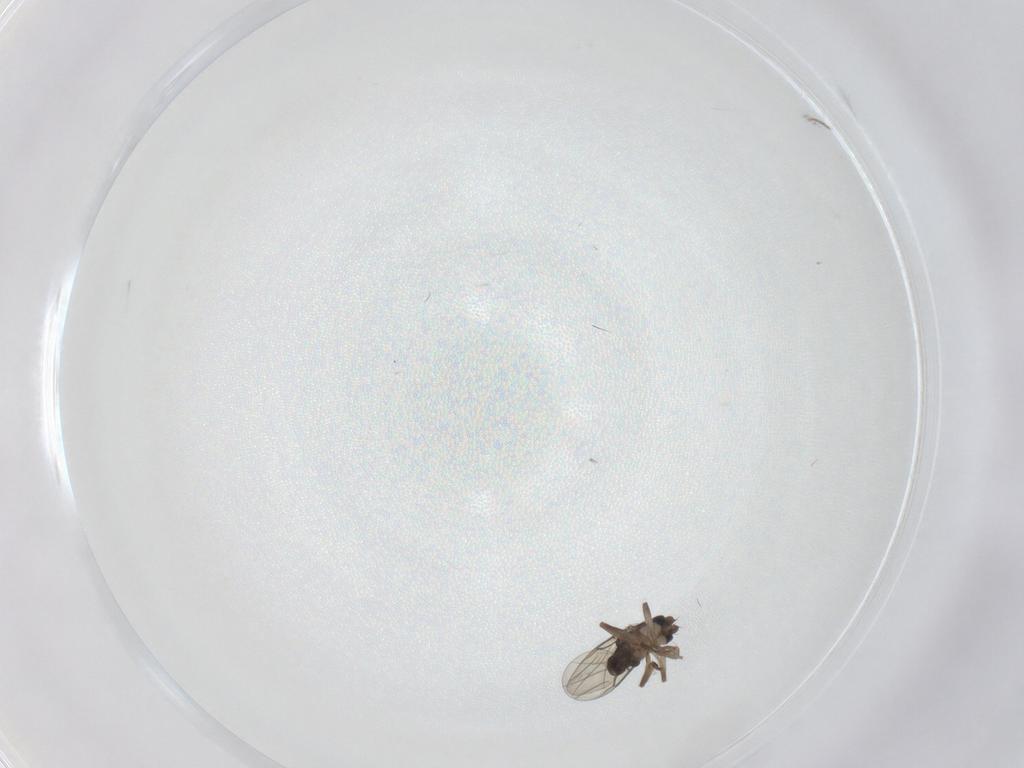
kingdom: Animalia
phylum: Arthropoda
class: Insecta
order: Diptera
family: Phoridae
